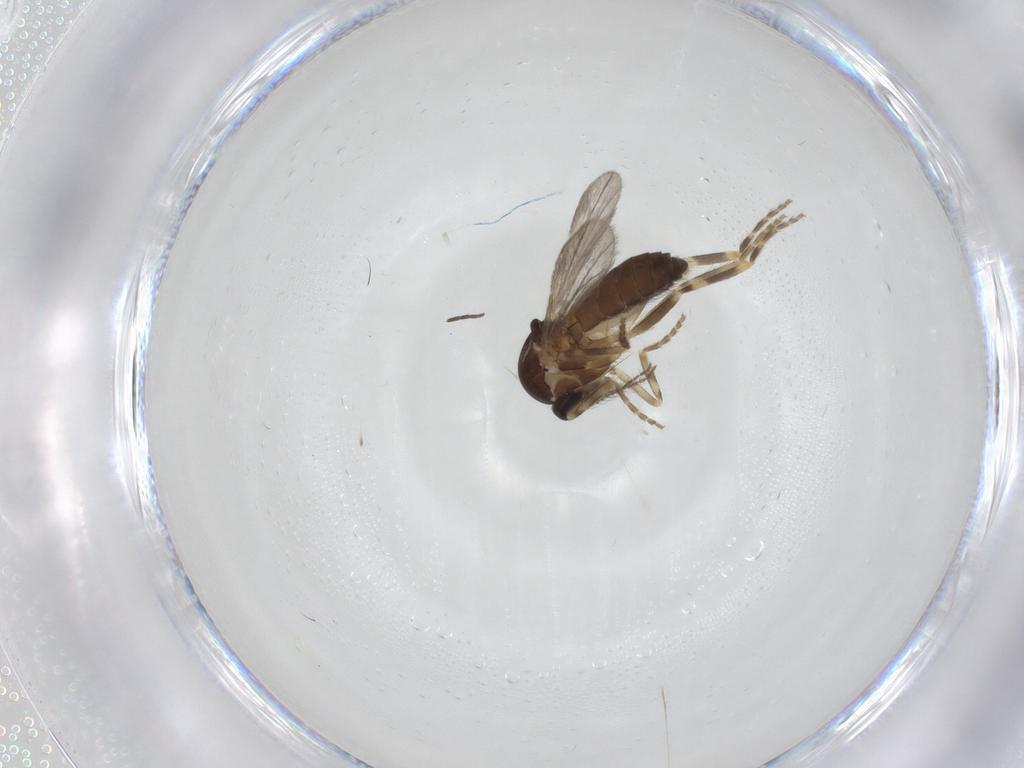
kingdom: Animalia
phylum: Arthropoda
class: Insecta
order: Diptera
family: Ceratopogonidae
